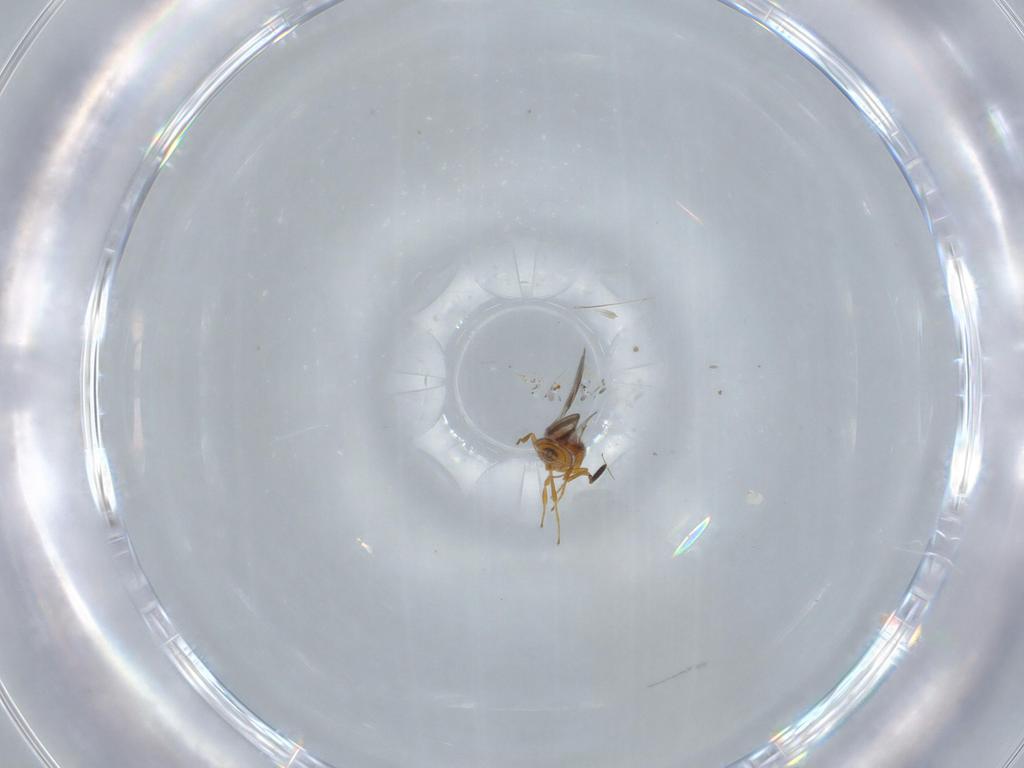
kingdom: Animalia
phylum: Arthropoda
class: Insecta
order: Hymenoptera
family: Scelionidae
